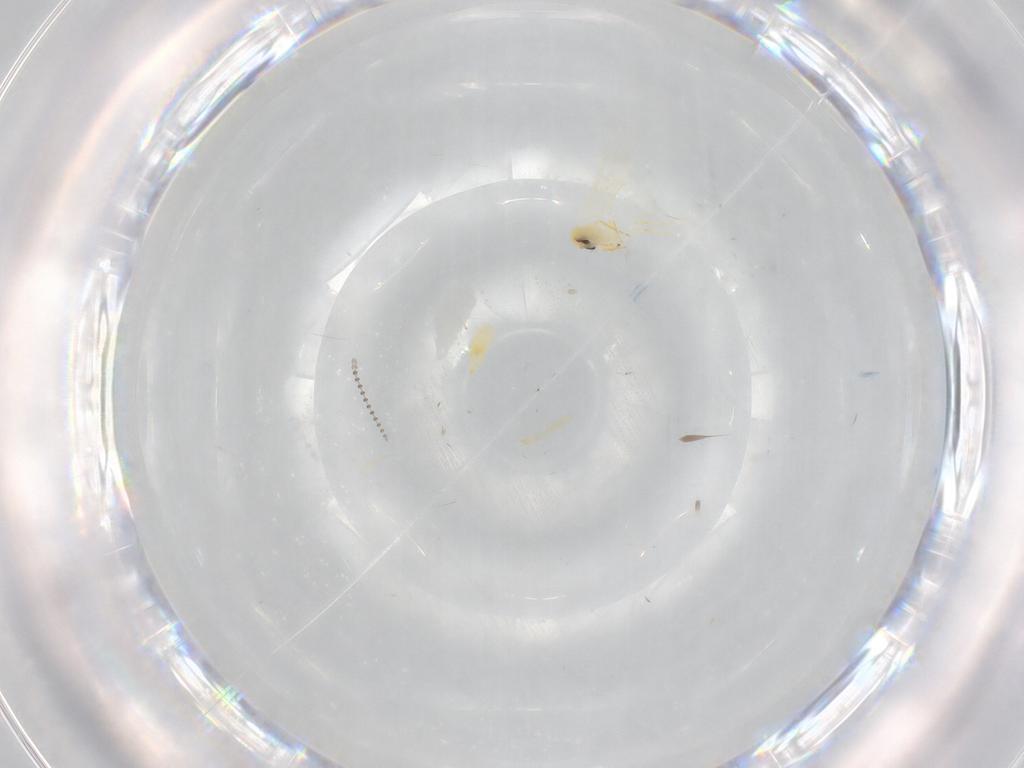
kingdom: Animalia
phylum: Arthropoda
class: Insecta
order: Hemiptera
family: Aleyrodidae
